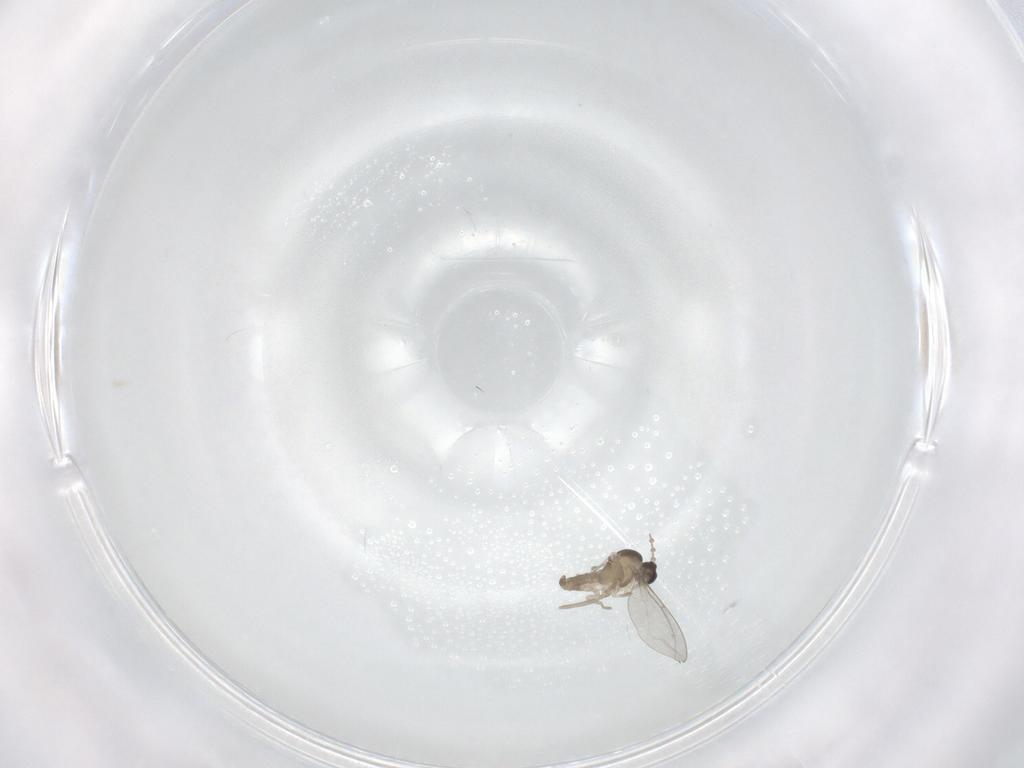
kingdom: Animalia
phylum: Arthropoda
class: Insecta
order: Diptera
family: Cecidomyiidae
